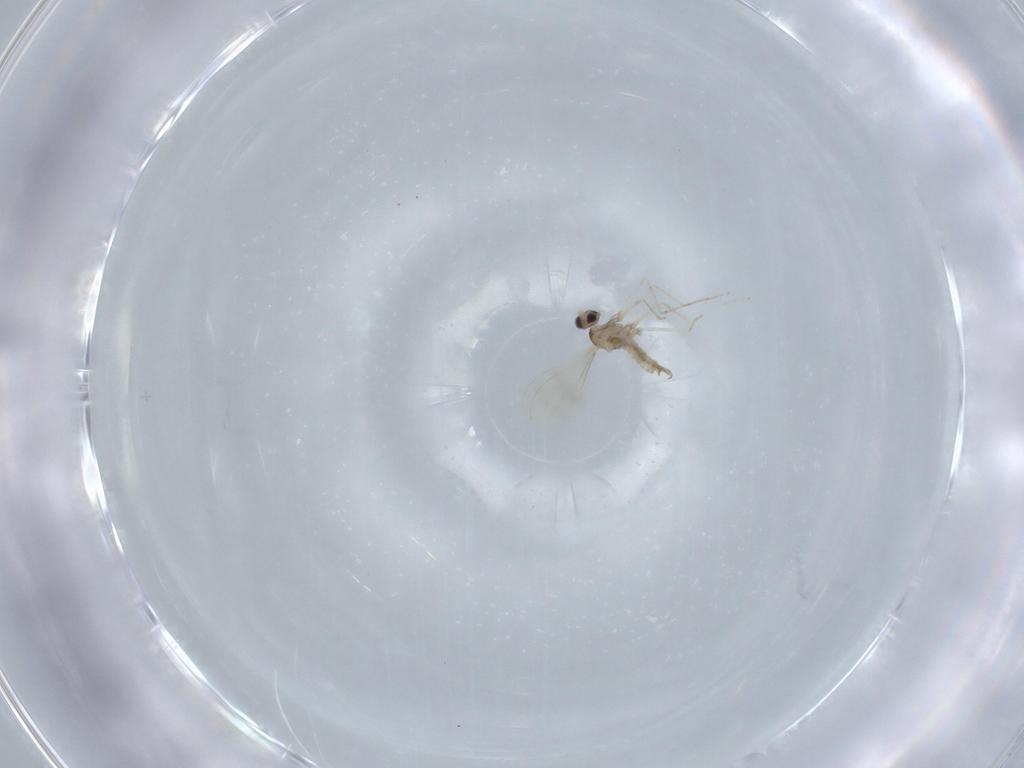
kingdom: Animalia
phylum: Arthropoda
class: Insecta
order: Diptera
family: Cecidomyiidae
